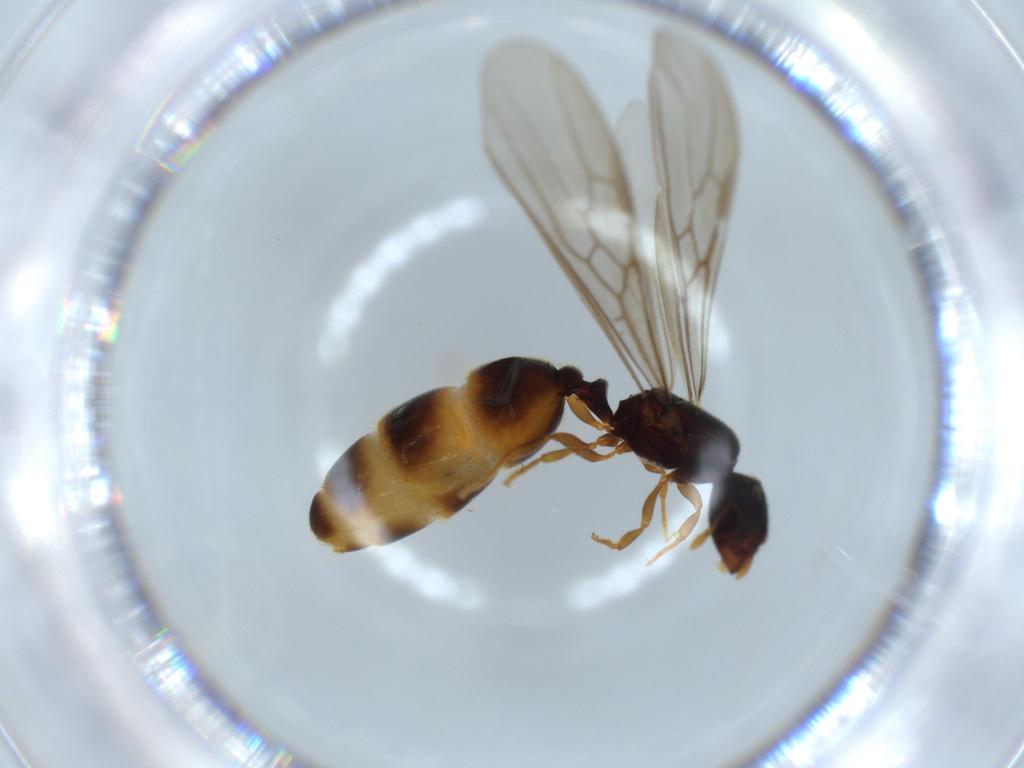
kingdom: Animalia
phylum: Arthropoda
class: Insecta
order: Hymenoptera
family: Formicidae
